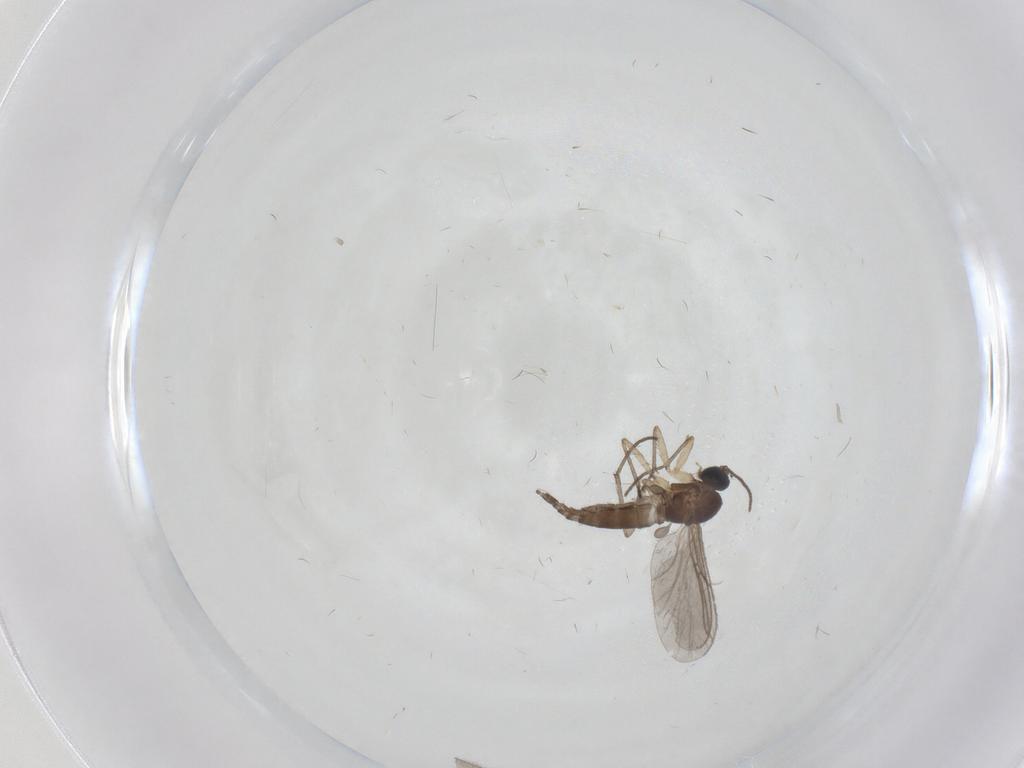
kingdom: Animalia
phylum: Arthropoda
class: Insecta
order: Diptera
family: Sciaridae
